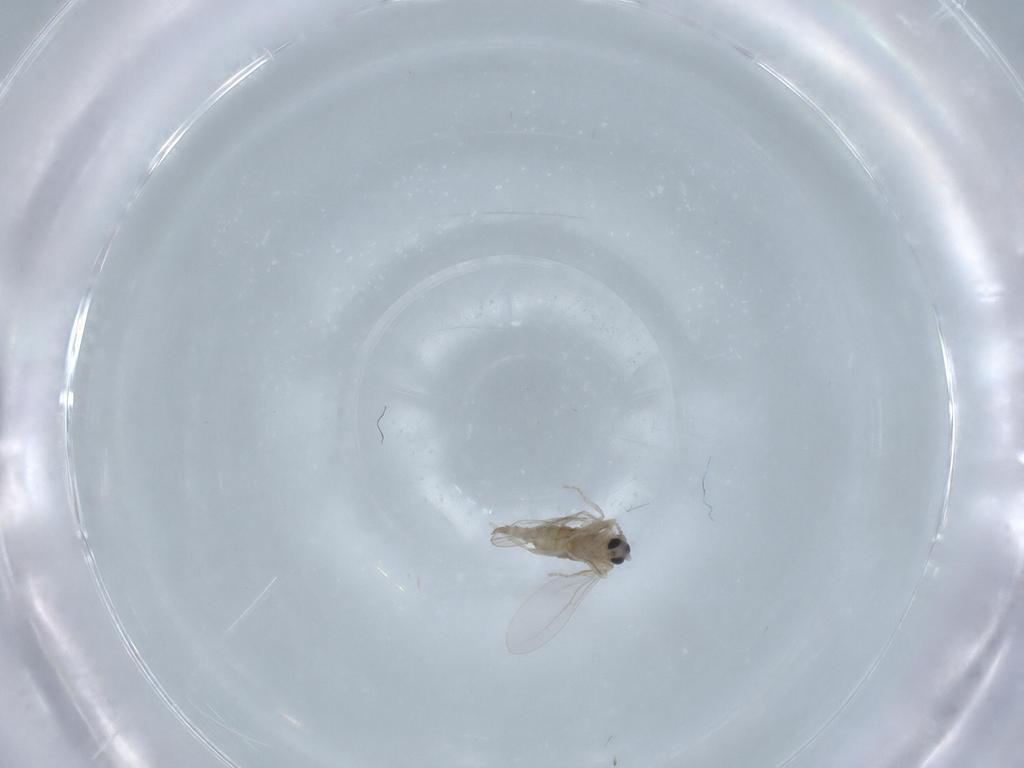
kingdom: Animalia
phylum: Arthropoda
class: Insecta
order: Diptera
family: Cecidomyiidae
